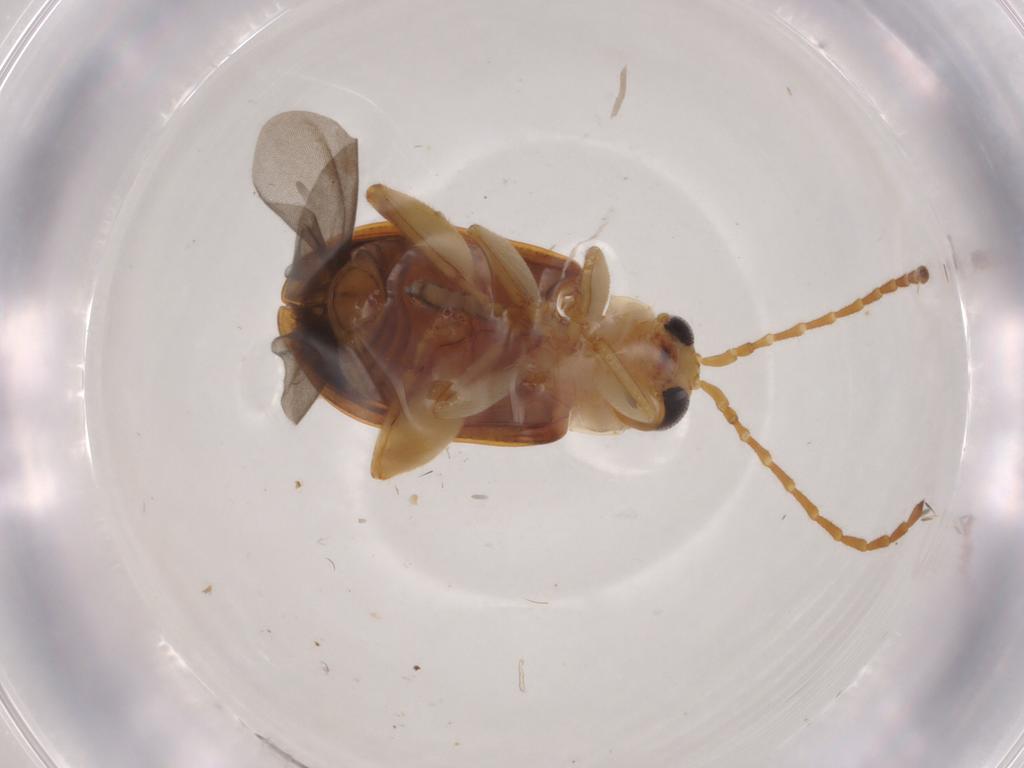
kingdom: Animalia
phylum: Arthropoda
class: Insecta
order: Coleoptera
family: Chrysomelidae
